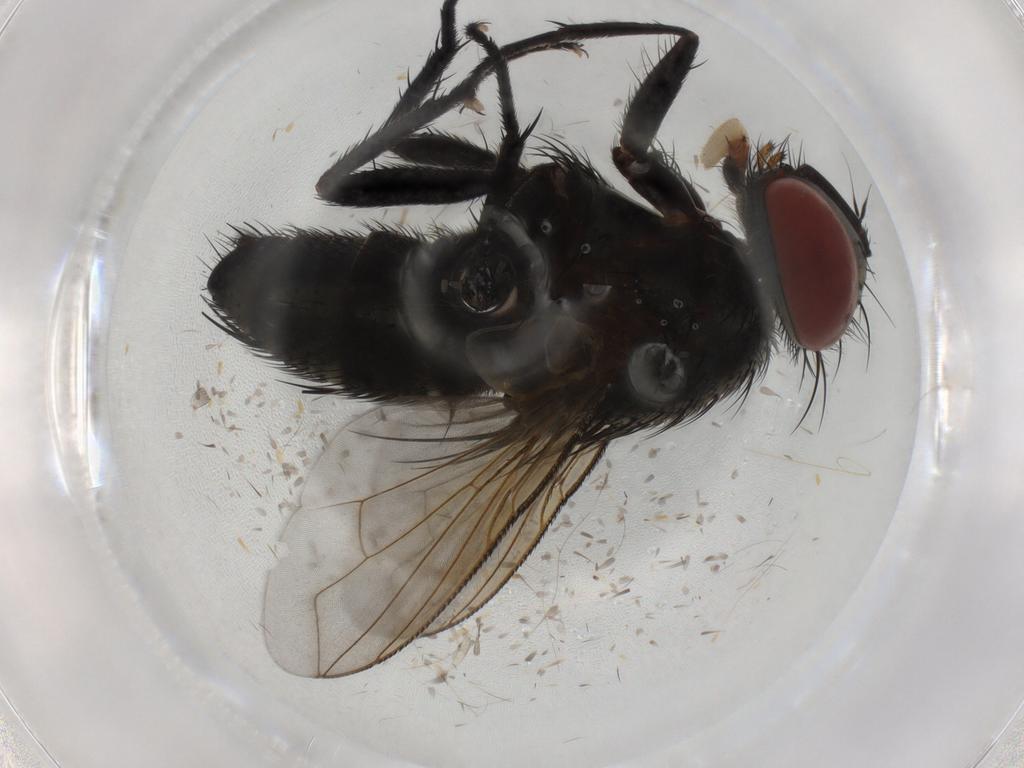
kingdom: Animalia
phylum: Arthropoda
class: Insecta
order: Diptera
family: Tachinidae
